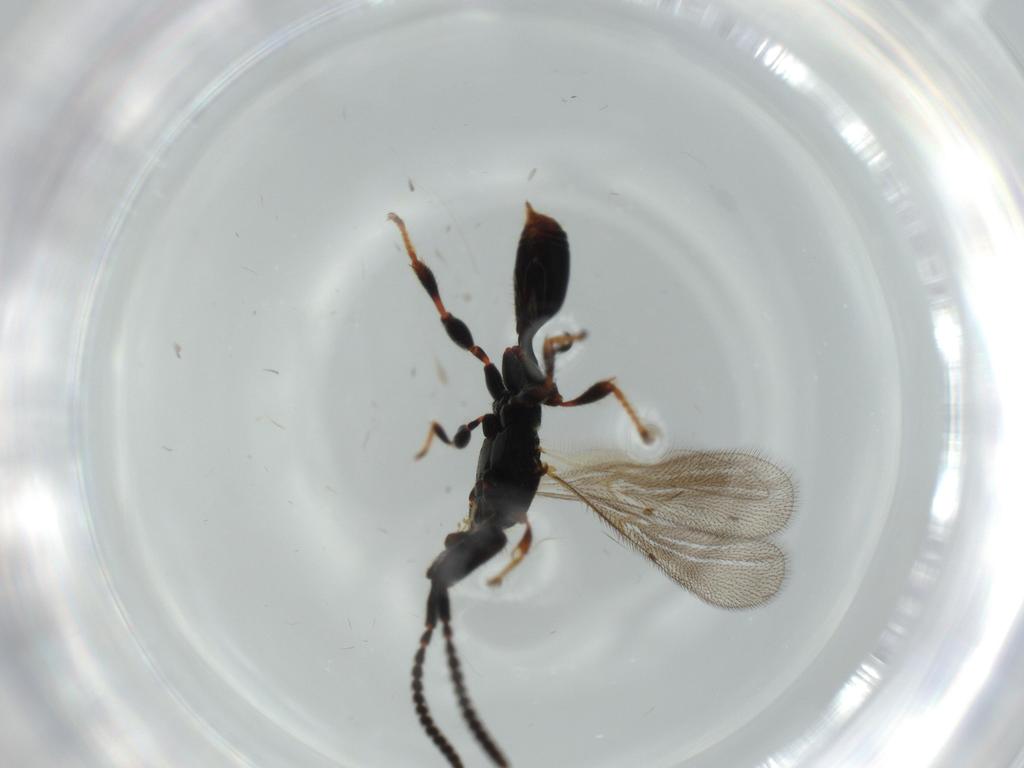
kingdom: Animalia
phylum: Arthropoda
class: Insecta
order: Hymenoptera
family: Diapriidae
